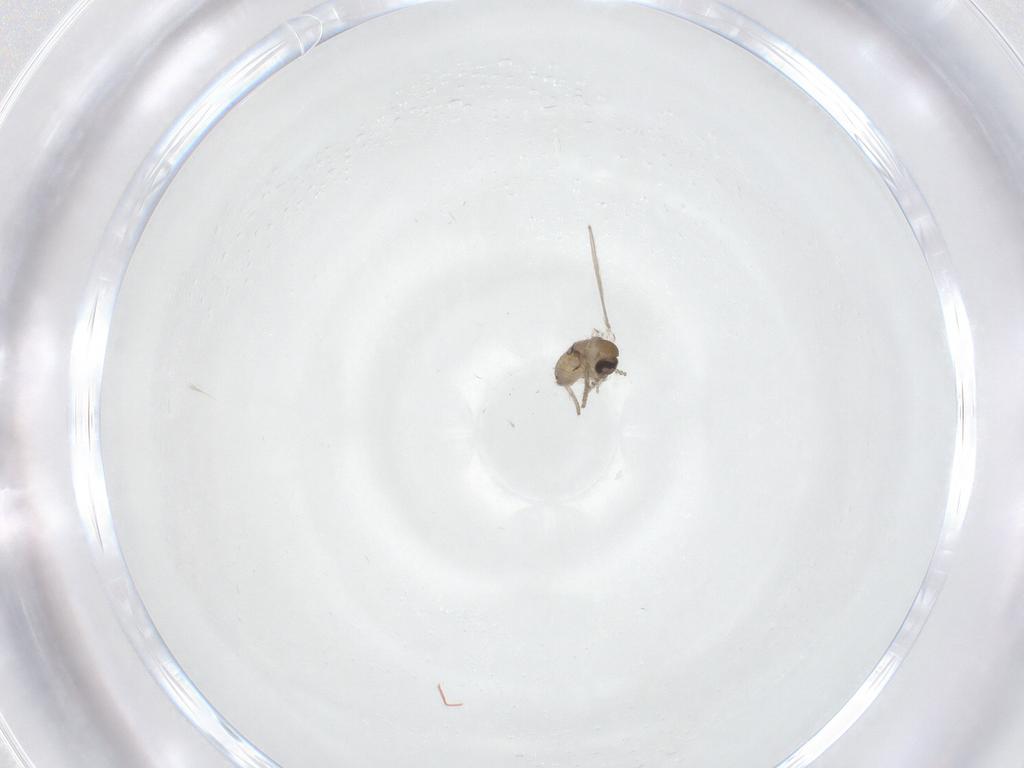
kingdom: Animalia
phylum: Arthropoda
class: Insecta
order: Diptera
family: Psychodidae
